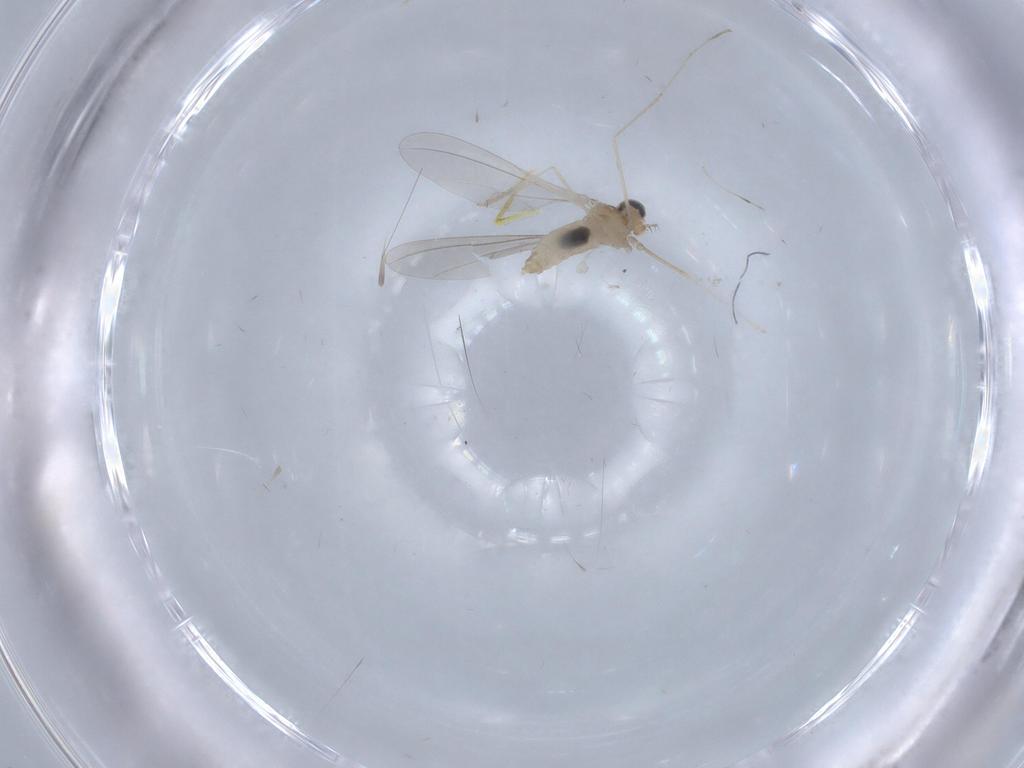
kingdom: Animalia
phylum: Arthropoda
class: Insecta
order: Diptera
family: Cecidomyiidae
